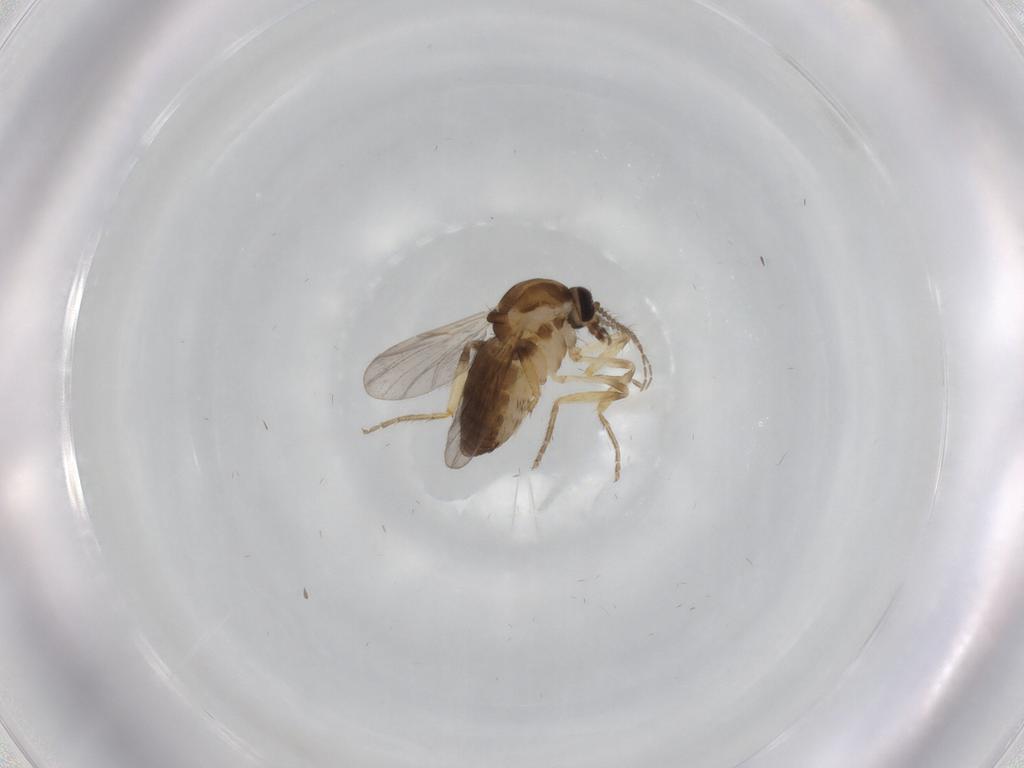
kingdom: Animalia
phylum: Arthropoda
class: Insecta
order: Diptera
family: Ceratopogonidae
